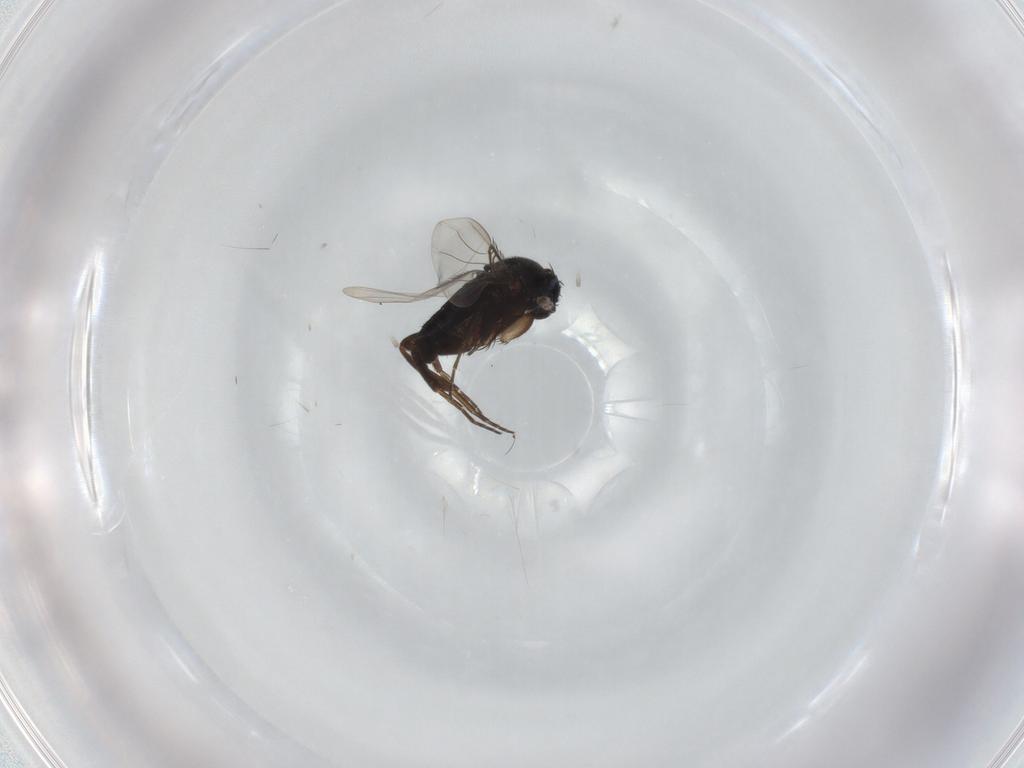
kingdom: Animalia
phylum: Arthropoda
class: Insecta
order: Diptera
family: Phoridae
